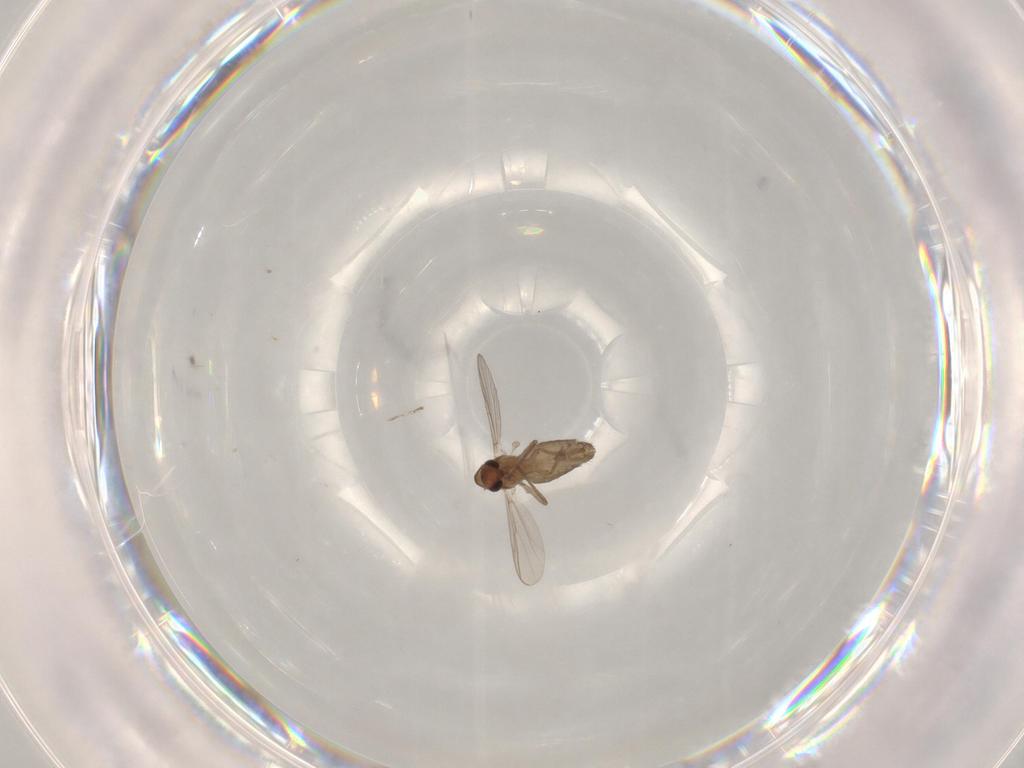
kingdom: Animalia
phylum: Arthropoda
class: Insecta
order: Diptera
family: Chironomidae
